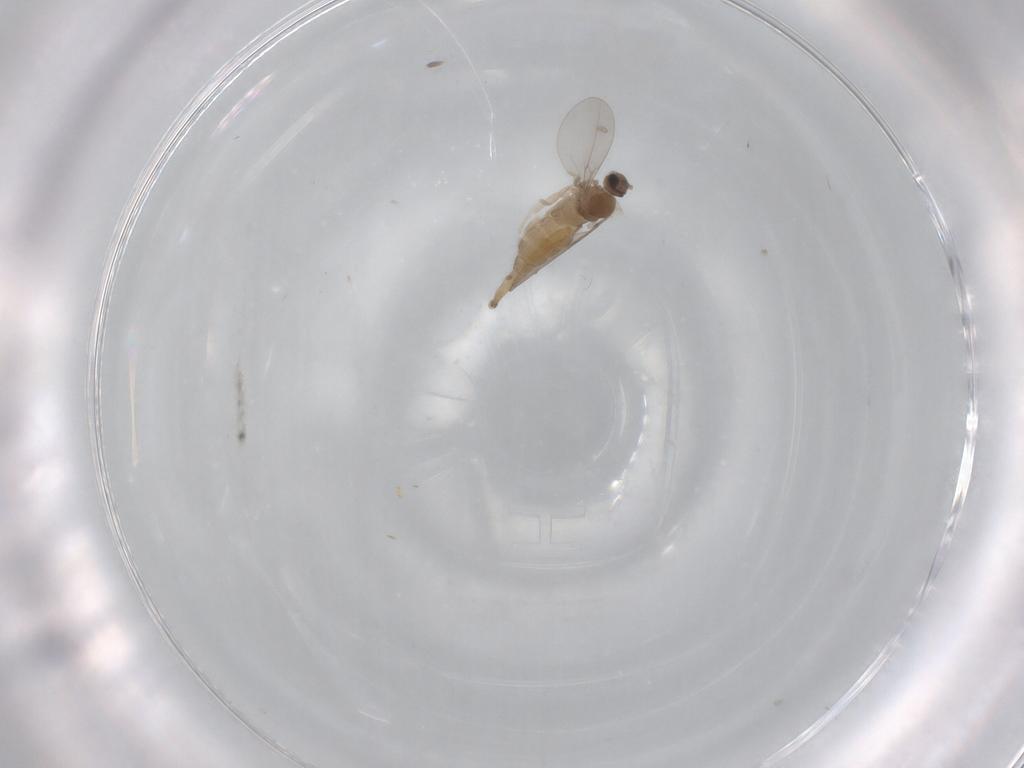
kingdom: Animalia
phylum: Arthropoda
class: Insecta
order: Diptera
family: Cecidomyiidae
